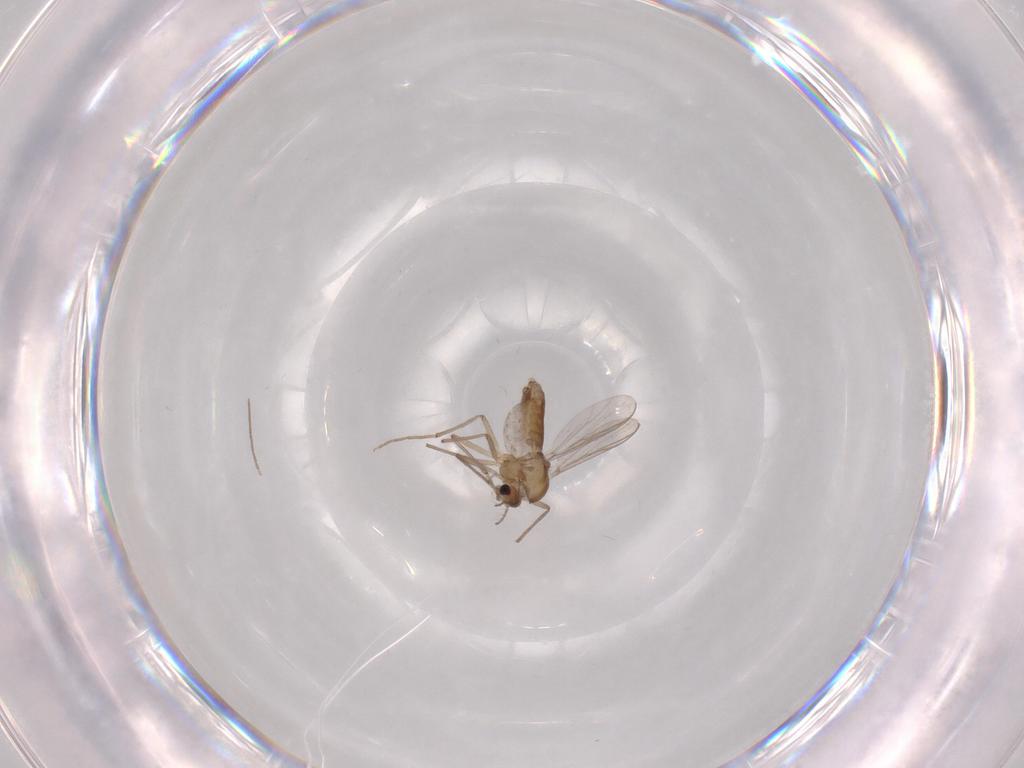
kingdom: Animalia
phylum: Arthropoda
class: Insecta
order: Diptera
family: Chironomidae
